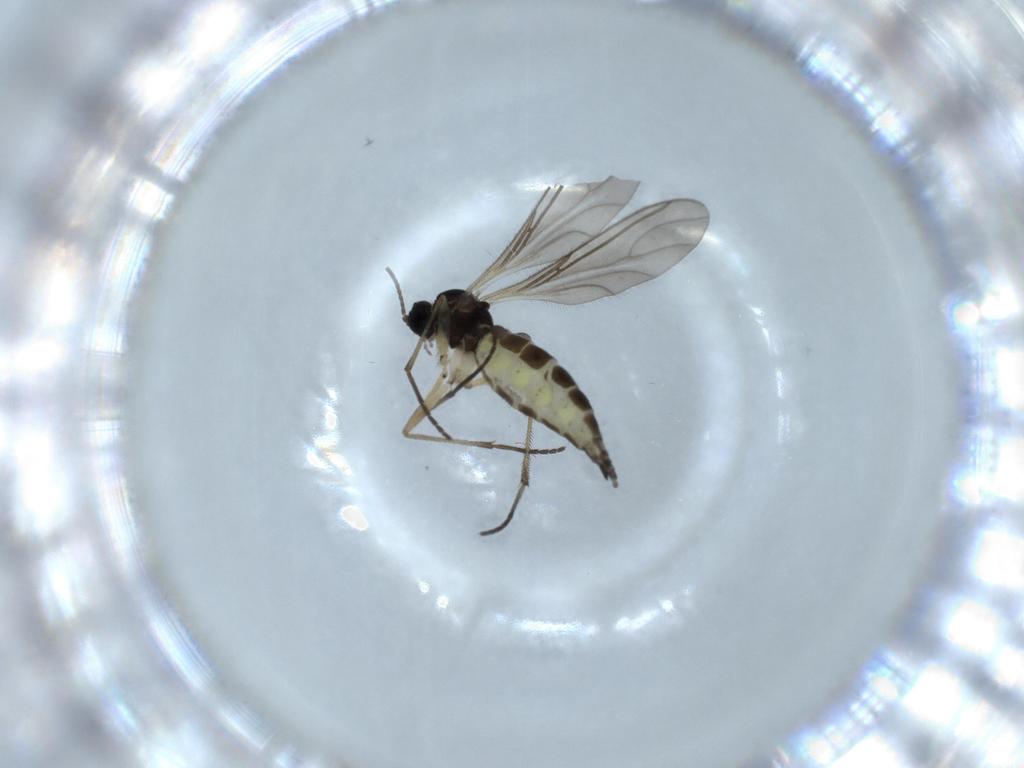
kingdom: Animalia
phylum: Arthropoda
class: Insecta
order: Diptera
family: Sciaridae
